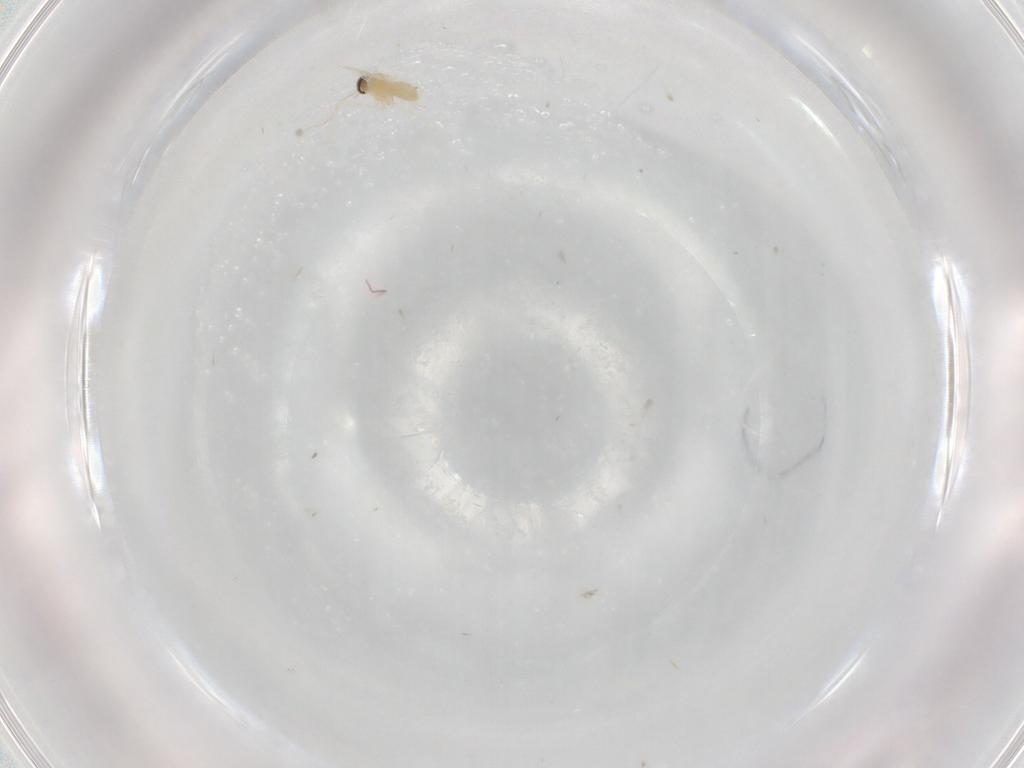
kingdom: Animalia
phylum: Arthropoda
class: Insecta
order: Diptera
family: Cecidomyiidae
